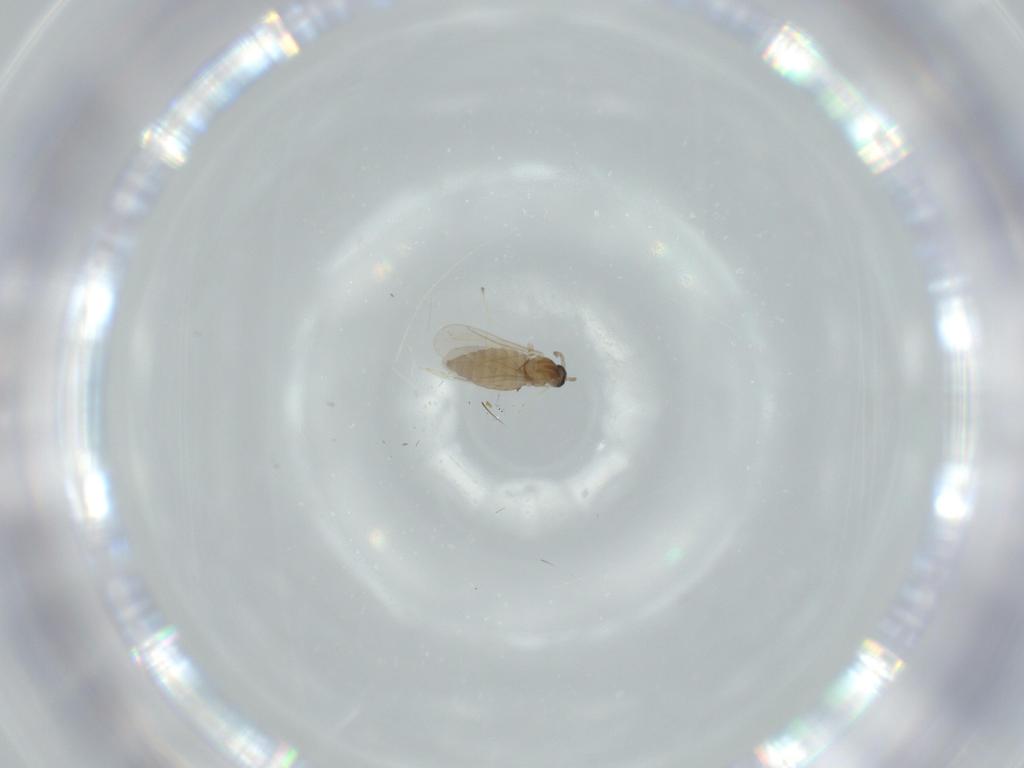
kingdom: Animalia
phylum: Arthropoda
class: Insecta
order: Diptera
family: Cecidomyiidae
